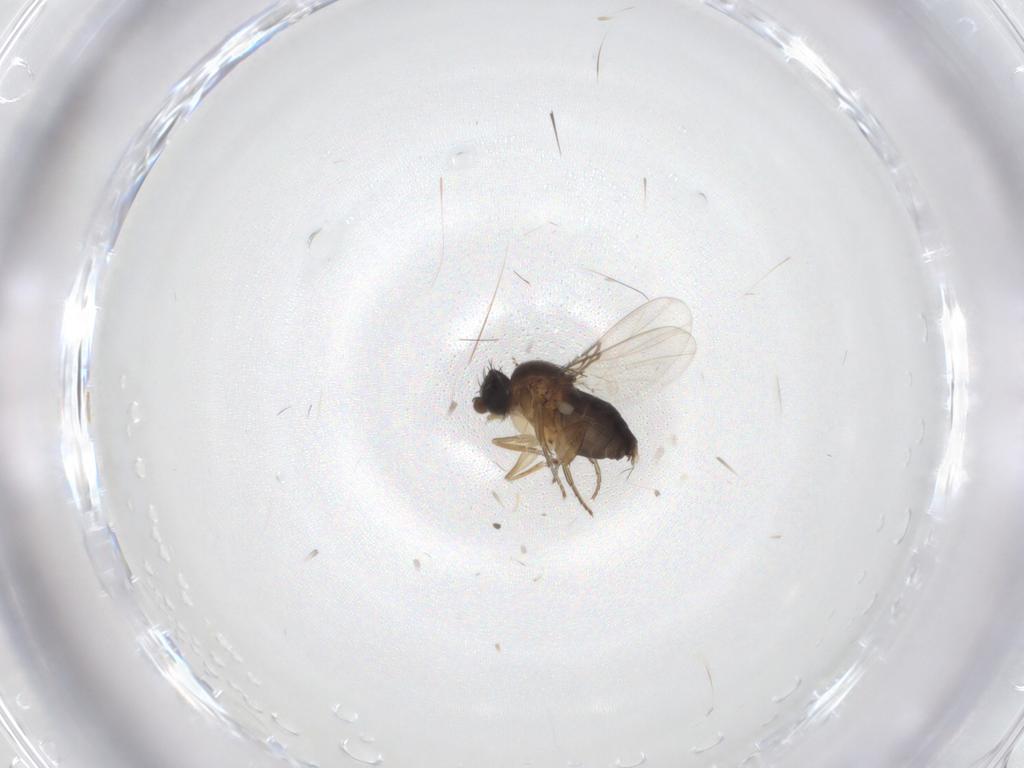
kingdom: Animalia
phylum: Arthropoda
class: Insecta
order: Diptera
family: Phoridae
